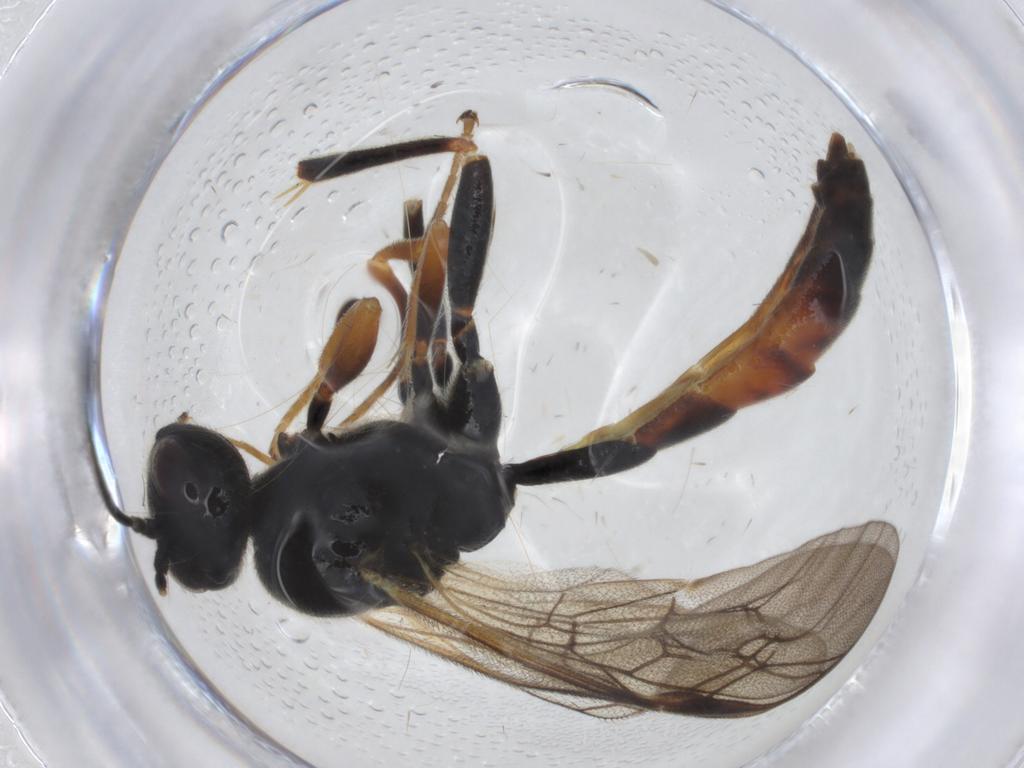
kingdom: Animalia
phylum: Arthropoda
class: Insecta
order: Hymenoptera
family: Ichneumonidae
